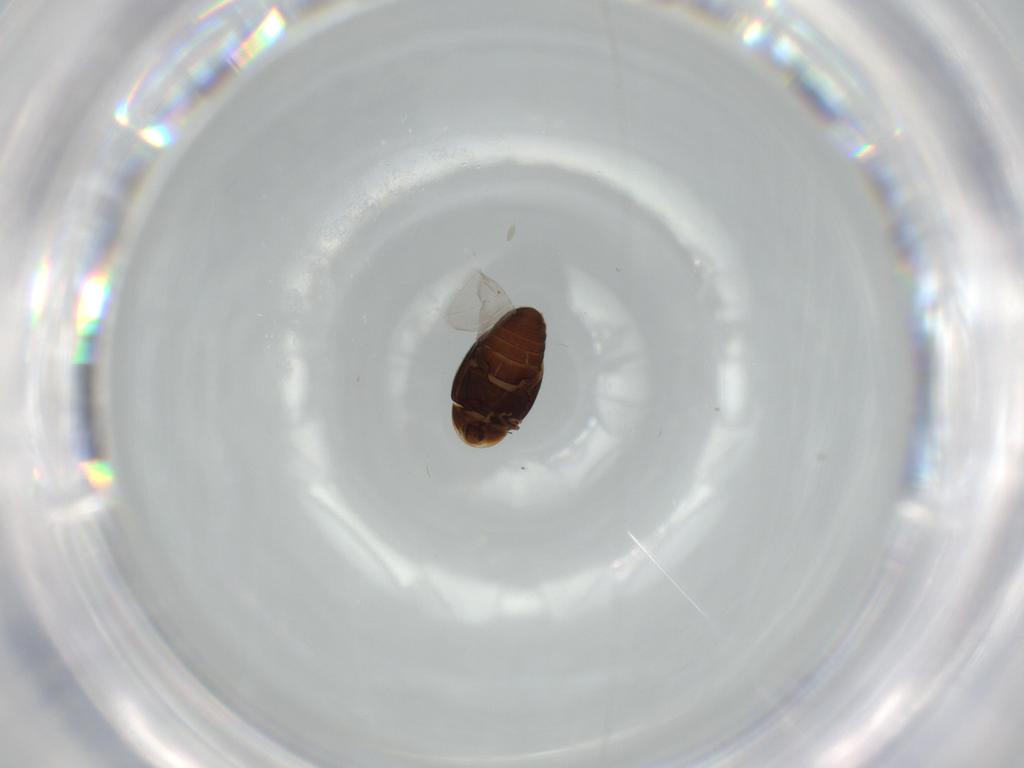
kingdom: Animalia
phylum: Arthropoda
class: Insecta
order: Coleoptera
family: Corylophidae
